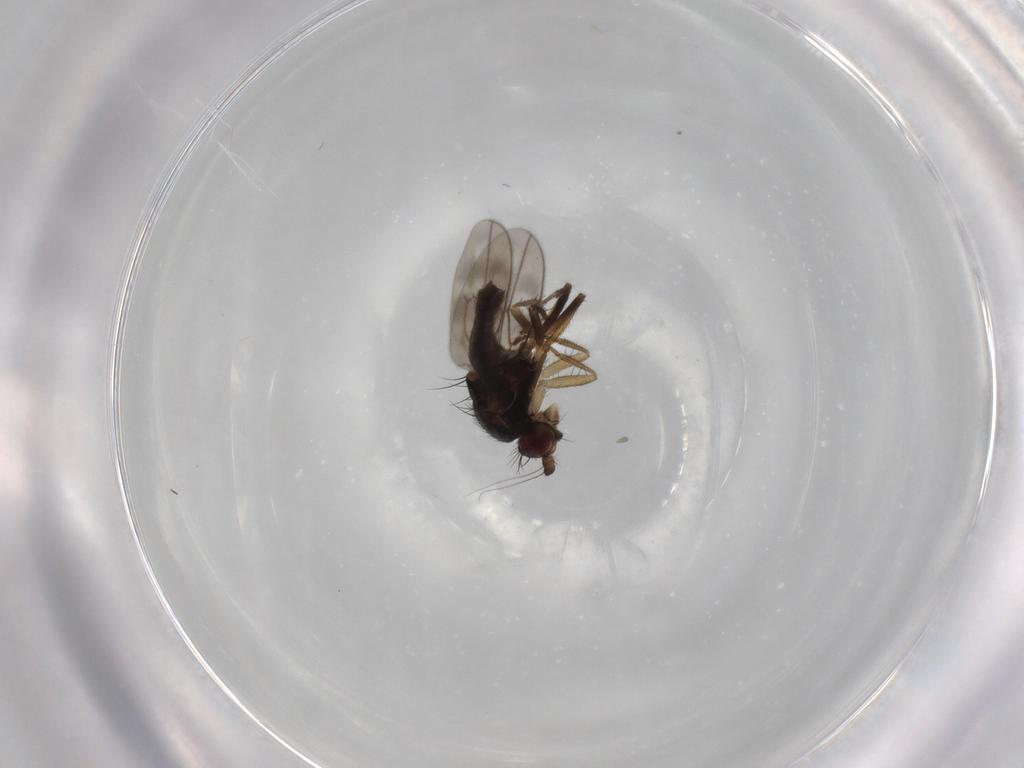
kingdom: Animalia
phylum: Arthropoda
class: Insecta
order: Diptera
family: Sphaeroceridae
